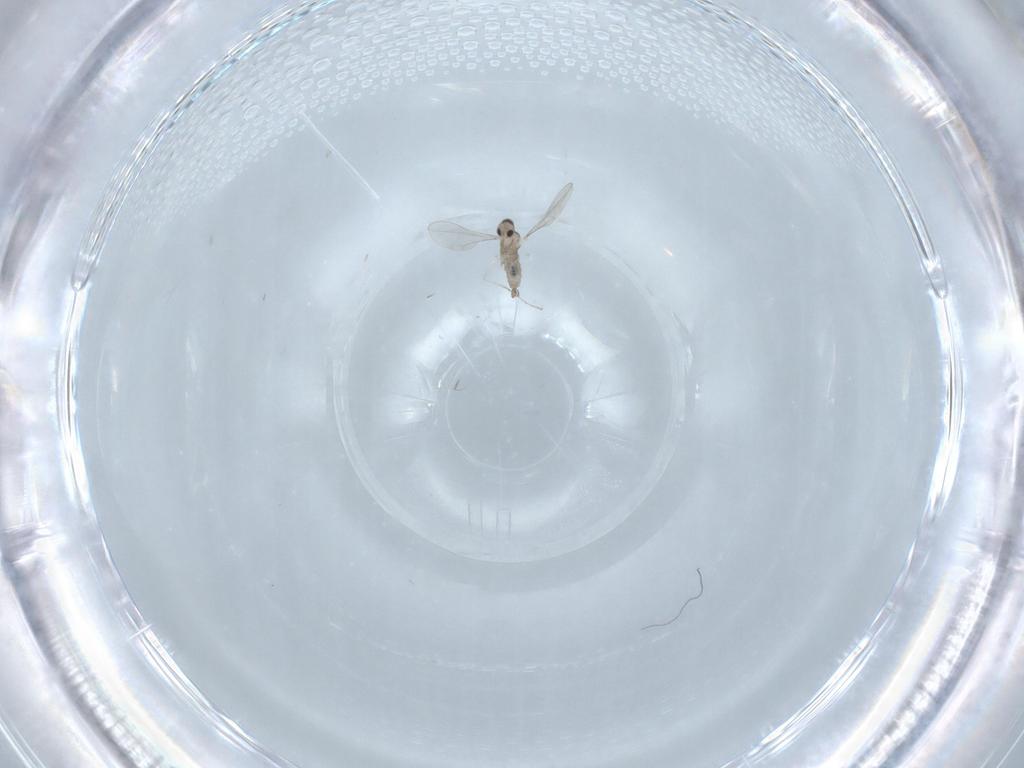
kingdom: Animalia
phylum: Arthropoda
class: Insecta
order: Diptera
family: Cecidomyiidae
